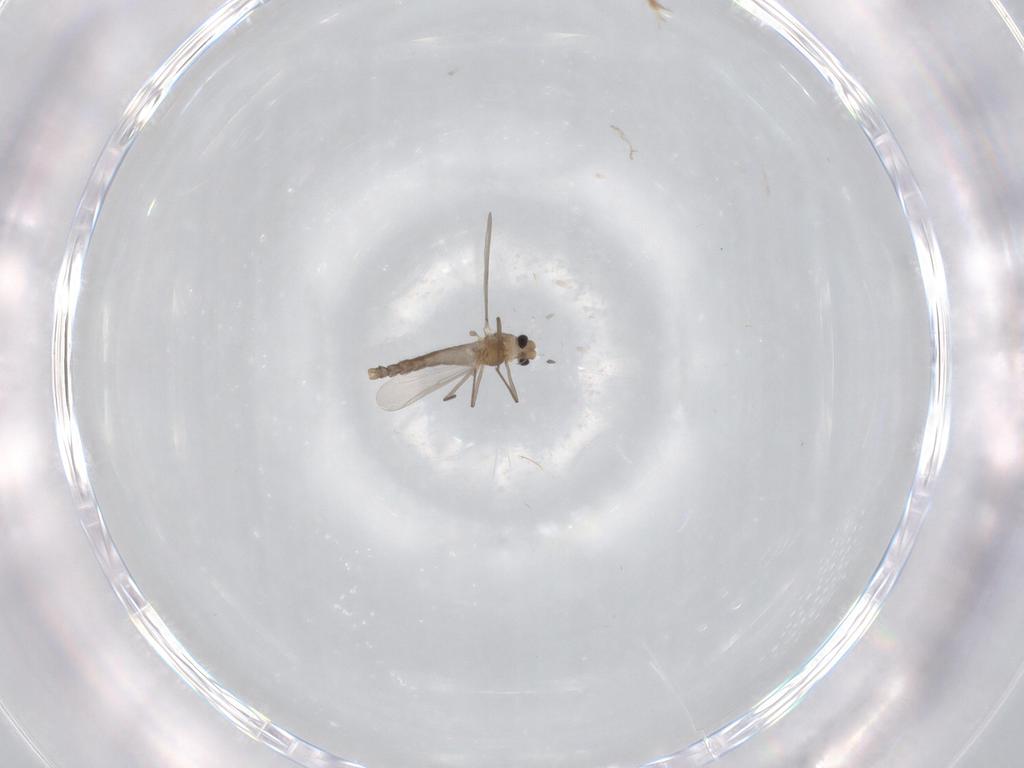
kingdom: Animalia
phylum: Arthropoda
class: Insecta
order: Diptera
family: Chironomidae
